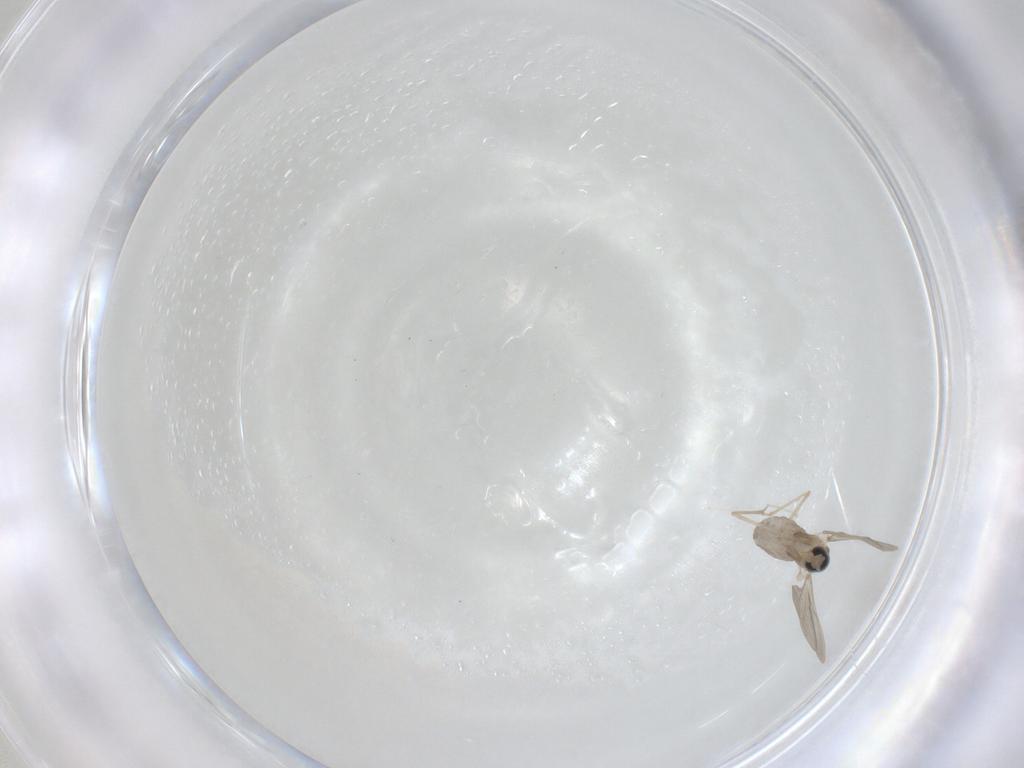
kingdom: Animalia
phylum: Arthropoda
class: Insecta
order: Diptera
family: Cecidomyiidae
